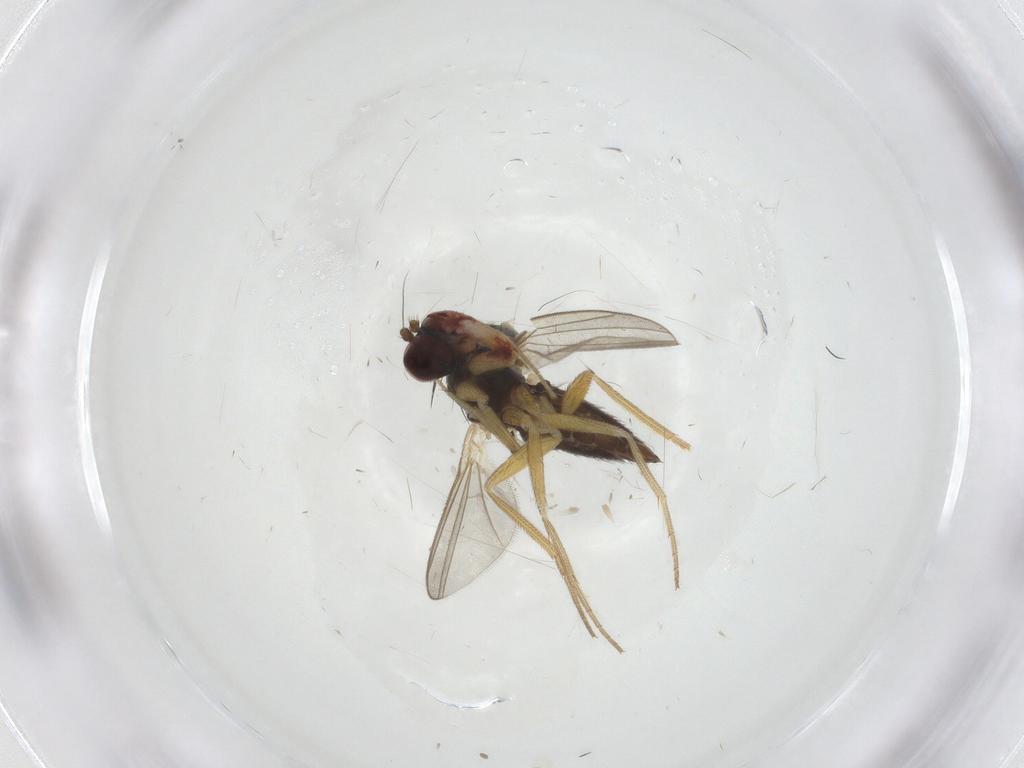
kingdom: Animalia
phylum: Arthropoda
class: Insecta
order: Diptera
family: Dolichopodidae
